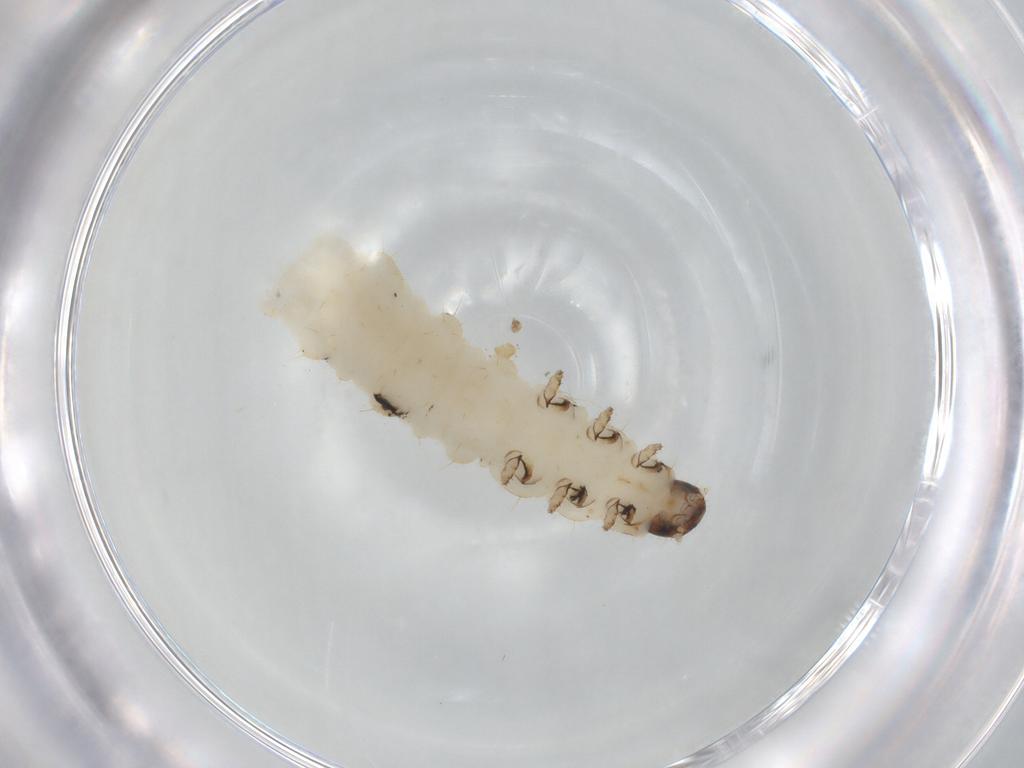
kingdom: Animalia
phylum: Arthropoda
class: Insecta
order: Coleoptera
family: Chrysomelidae
